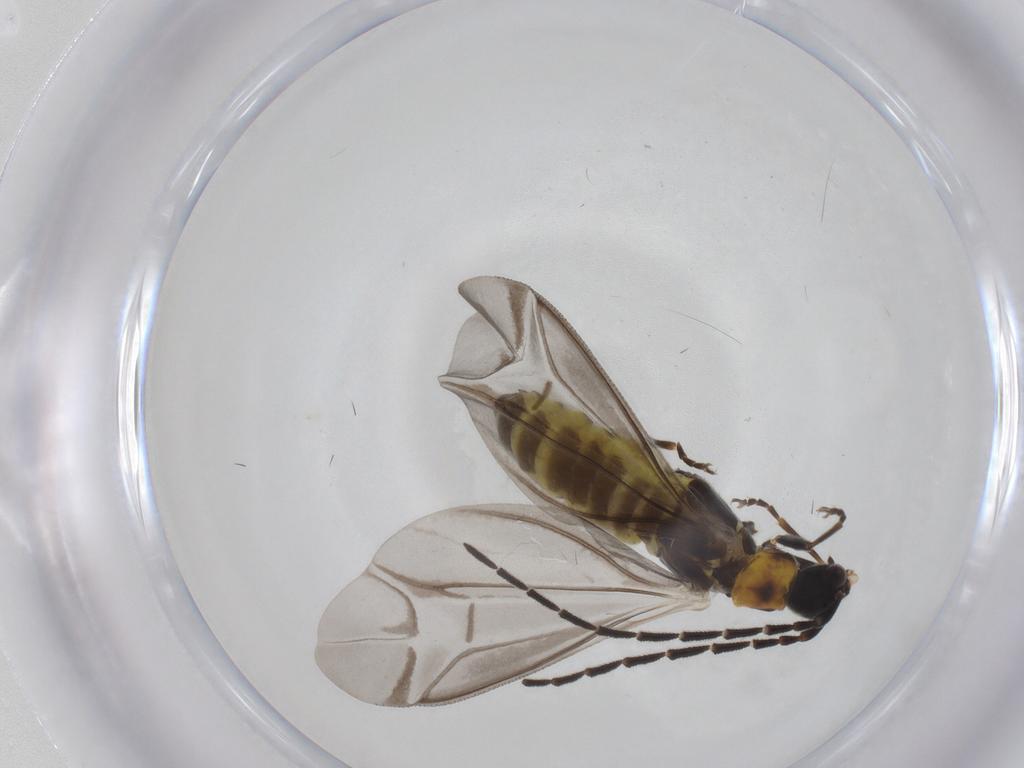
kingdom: Animalia
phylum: Arthropoda
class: Insecta
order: Coleoptera
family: Cantharidae
